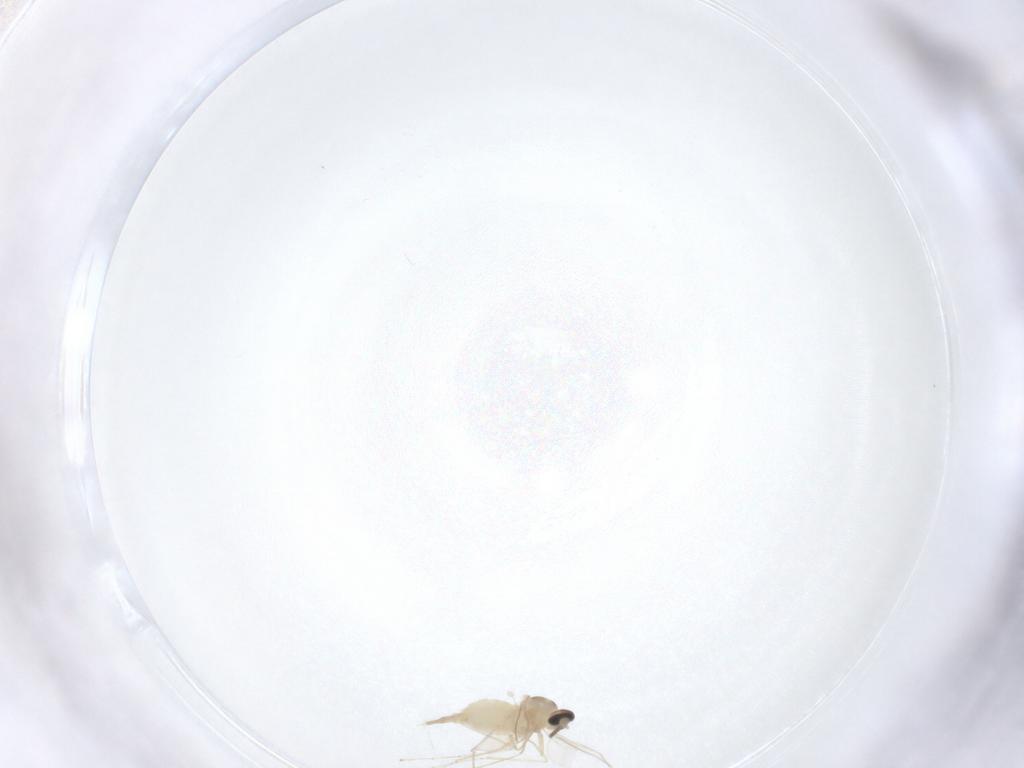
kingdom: Animalia
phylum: Arthropoda
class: Insecta
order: Diptera
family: Cecidomyiidae
